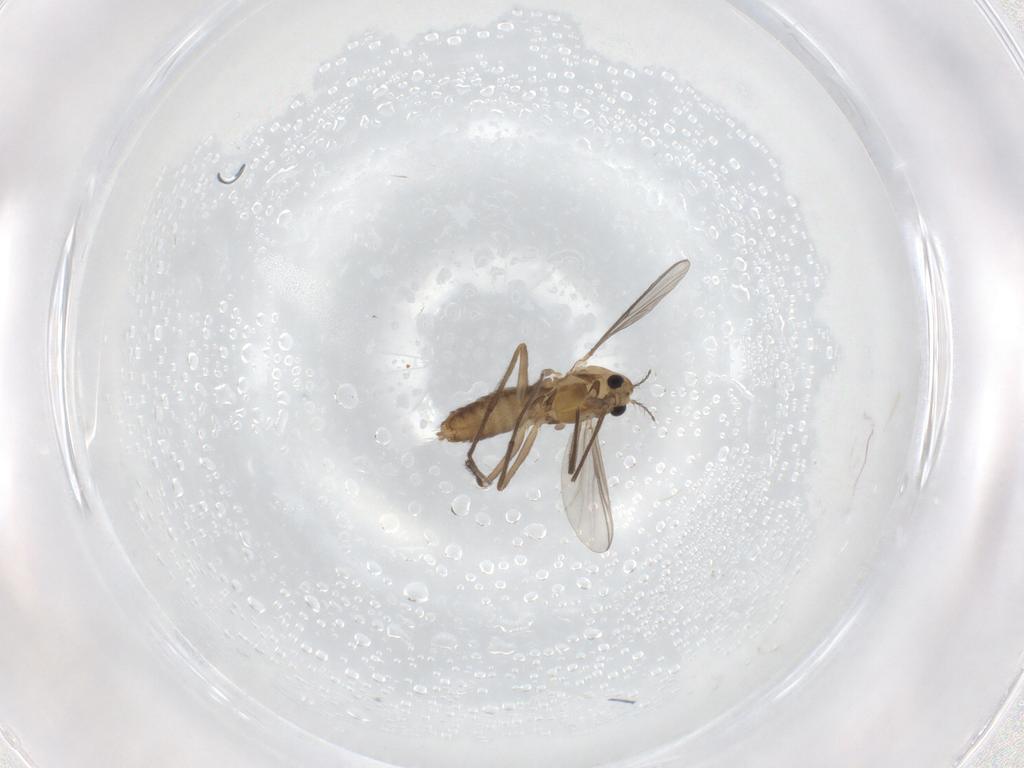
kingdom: Animalia
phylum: Arthropoda
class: Insecta
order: Diptera
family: Chironomidae
